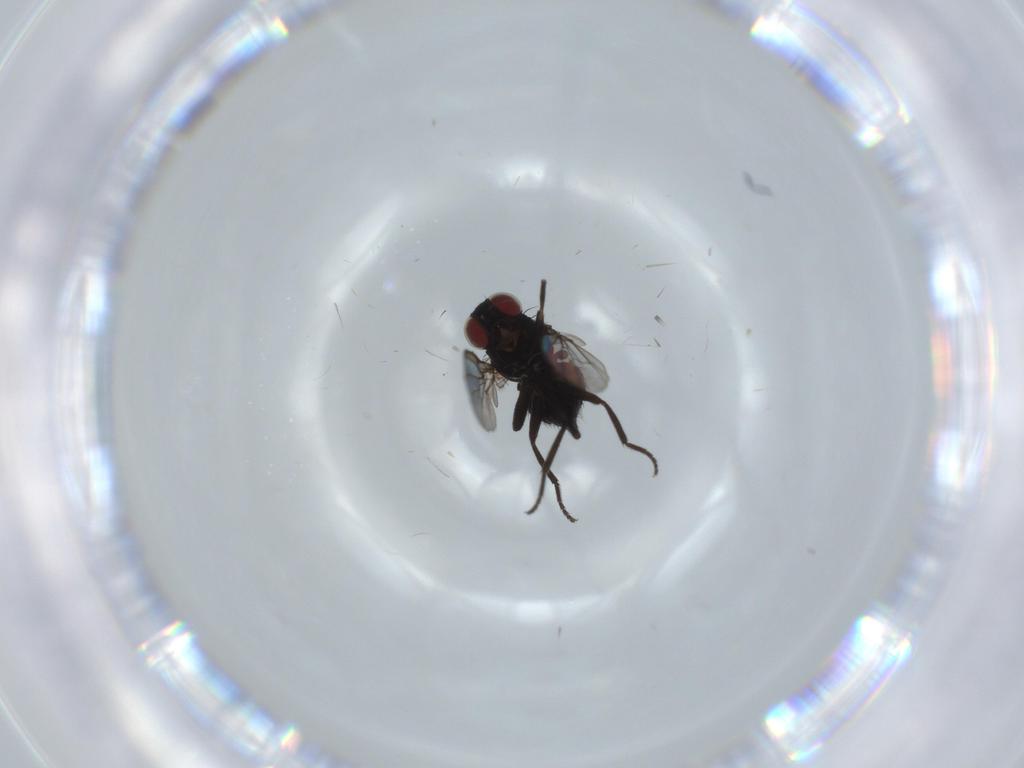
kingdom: Animalia
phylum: Arthropoda
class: Insecta
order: Diptera
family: Agromyzidae
